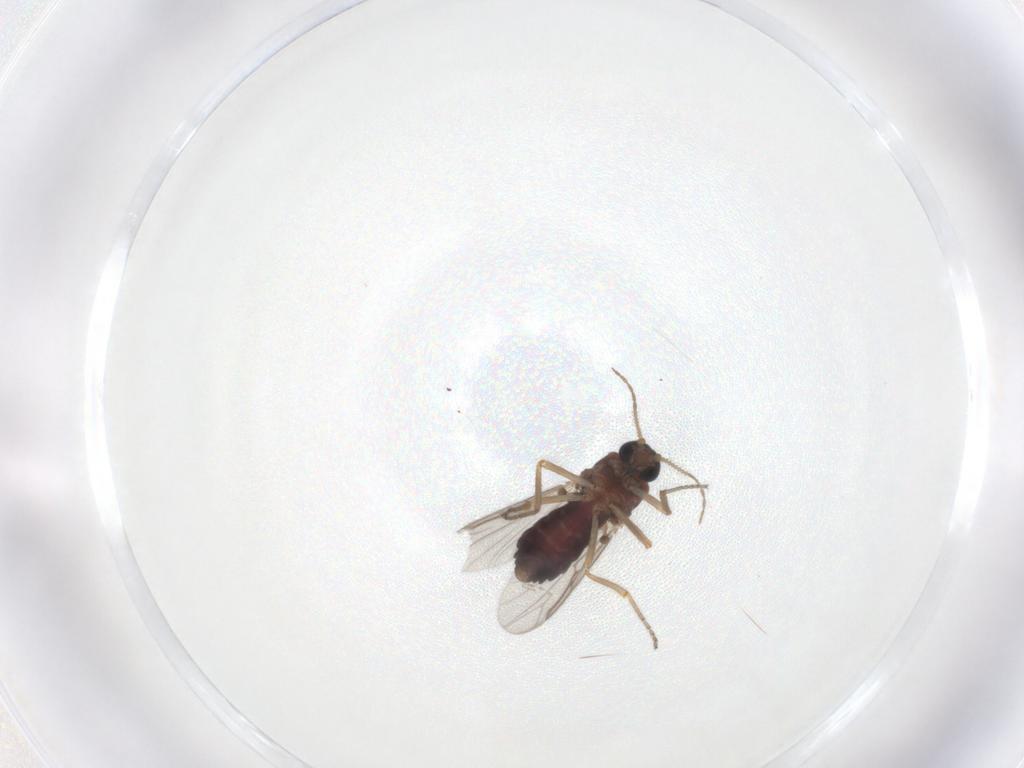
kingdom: Animalia
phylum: Arthropoda
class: Insecta
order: Diptera
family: Ceratopogonidae
